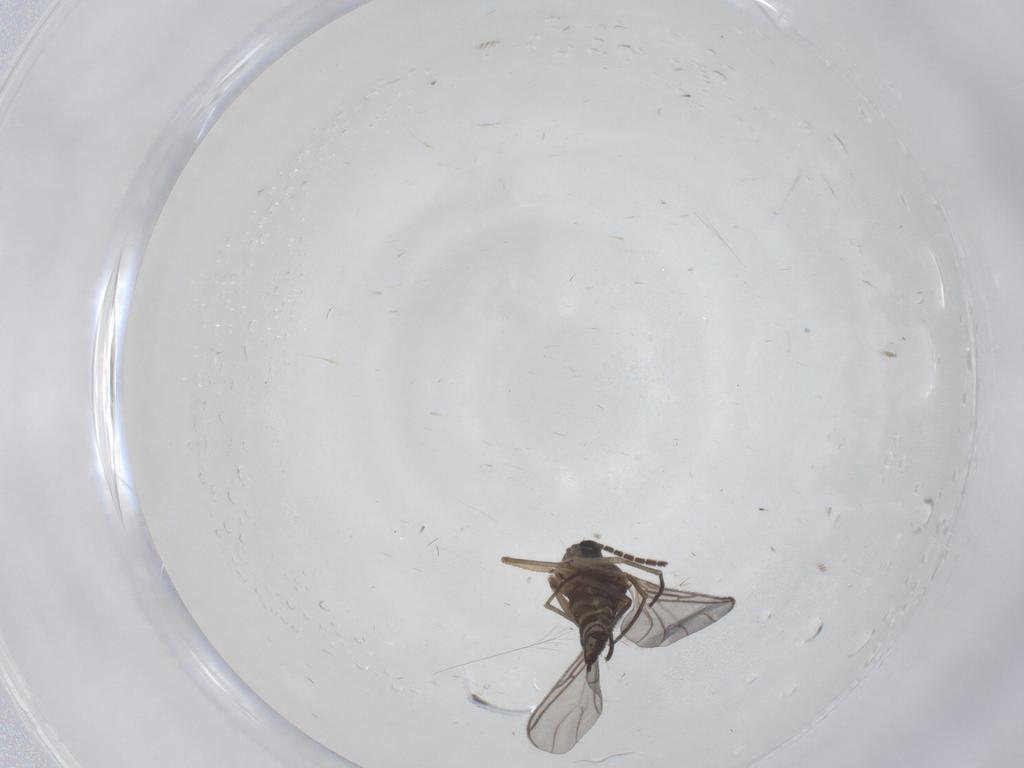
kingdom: Animalia
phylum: Arthropoda
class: Insecta
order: Diptera
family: Sciaridae
